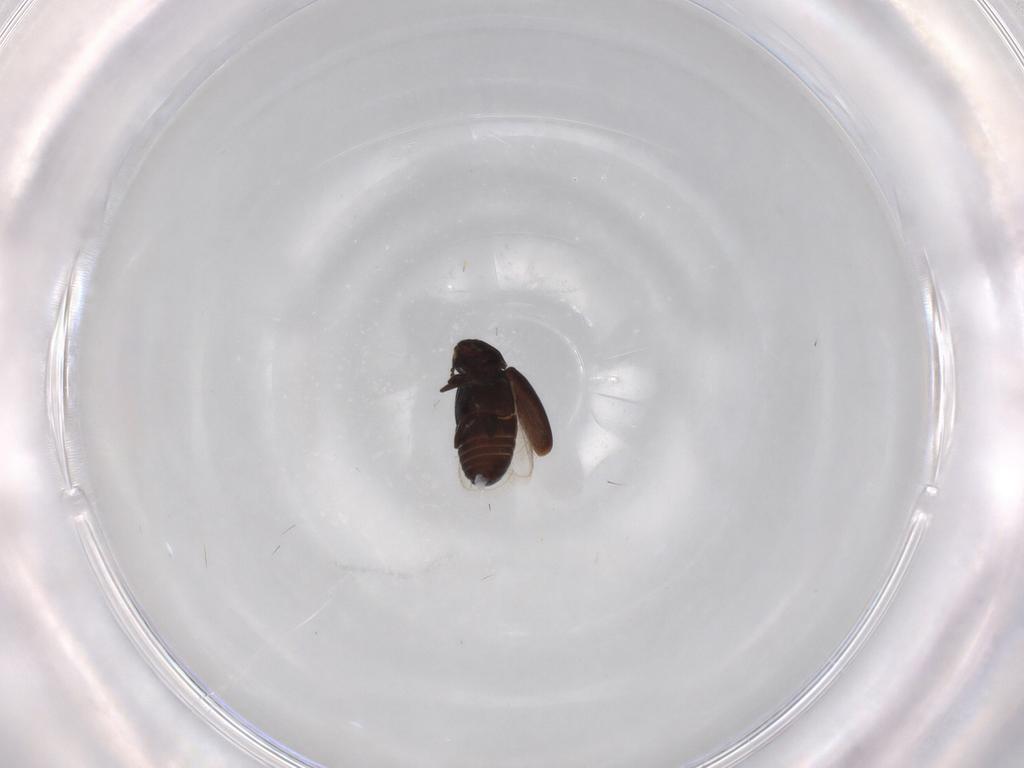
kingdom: Animalia
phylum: Arthropoda
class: Insecta
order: Coleoptera
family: Corylophidae
